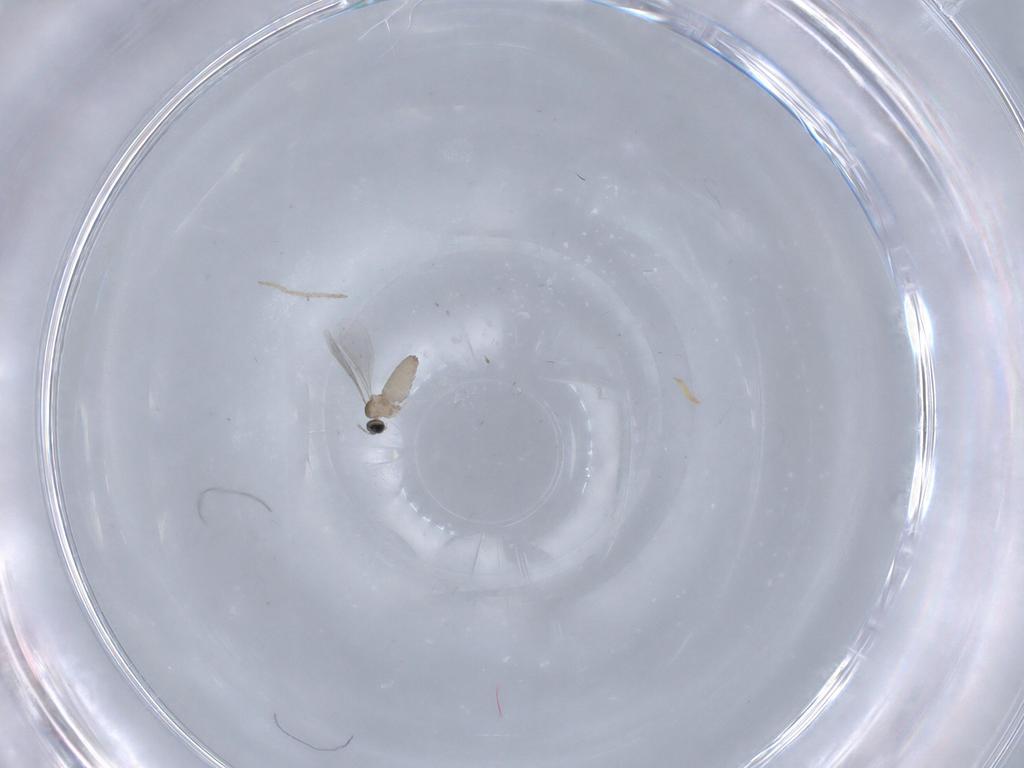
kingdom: Animalia
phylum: Arthropoda
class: Insecta
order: Diptera
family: Cecidomyiidae
